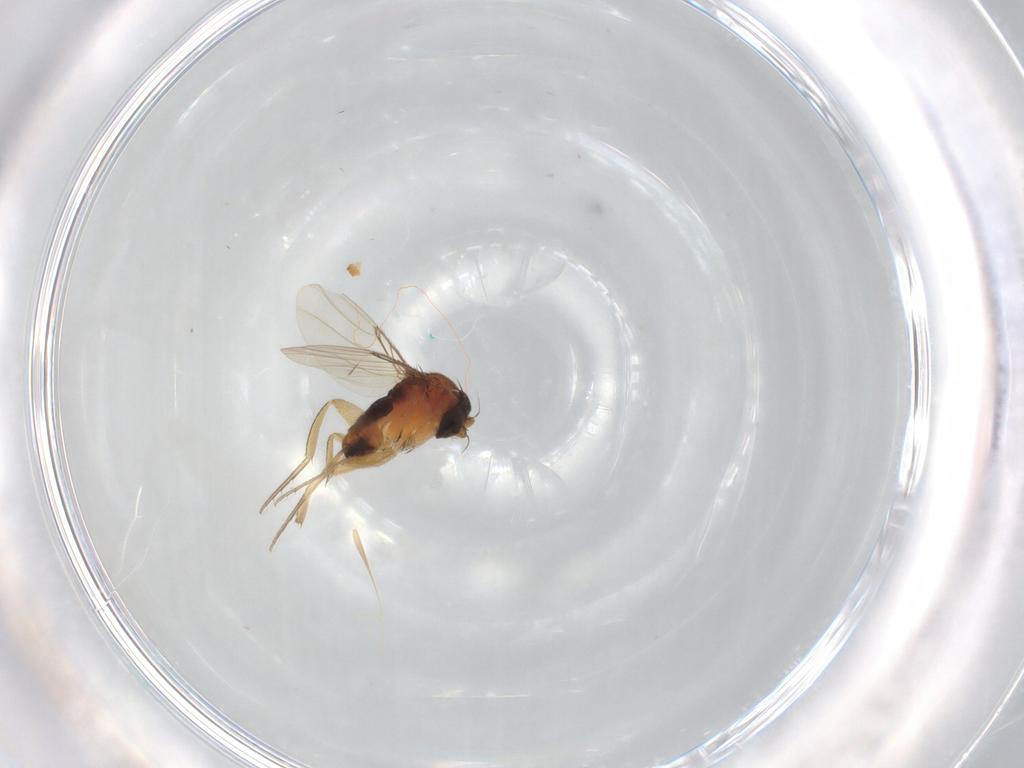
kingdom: Animalia
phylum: Arthropoda
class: Insecta
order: Diptera
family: Phoridae
